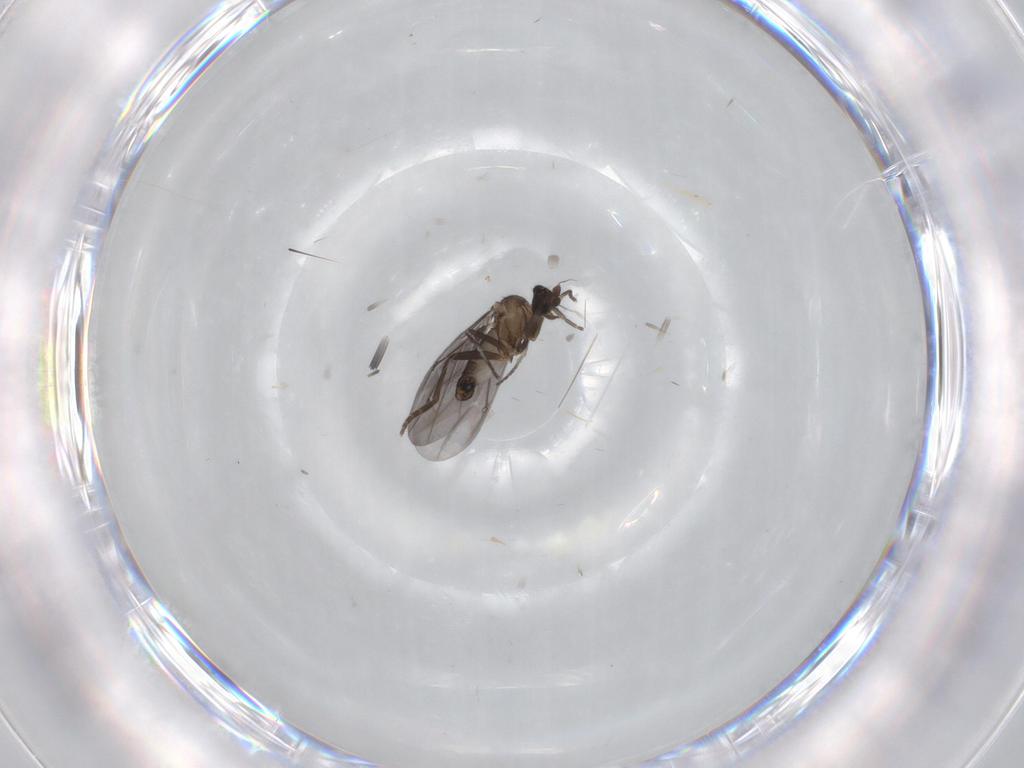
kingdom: Animalia
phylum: Arthropoda
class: Insecta
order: Diptera
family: Phoridae
